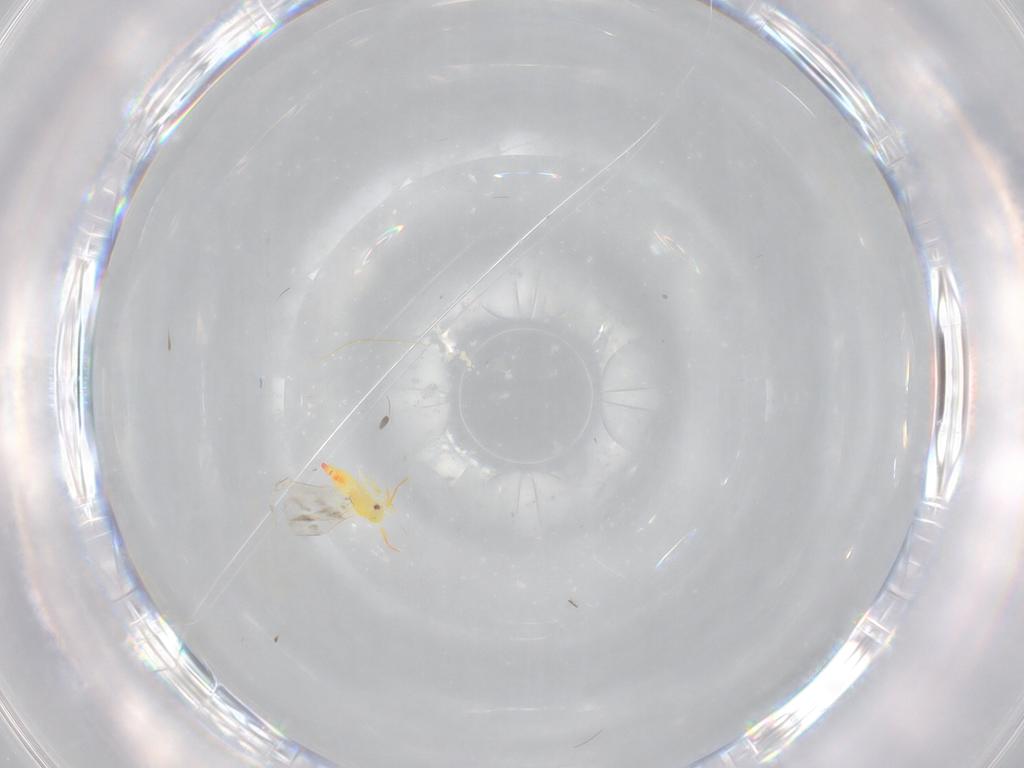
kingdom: Animalia
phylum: Arthropoda
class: Insecta
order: Hemiptera
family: Aleyrodidae
